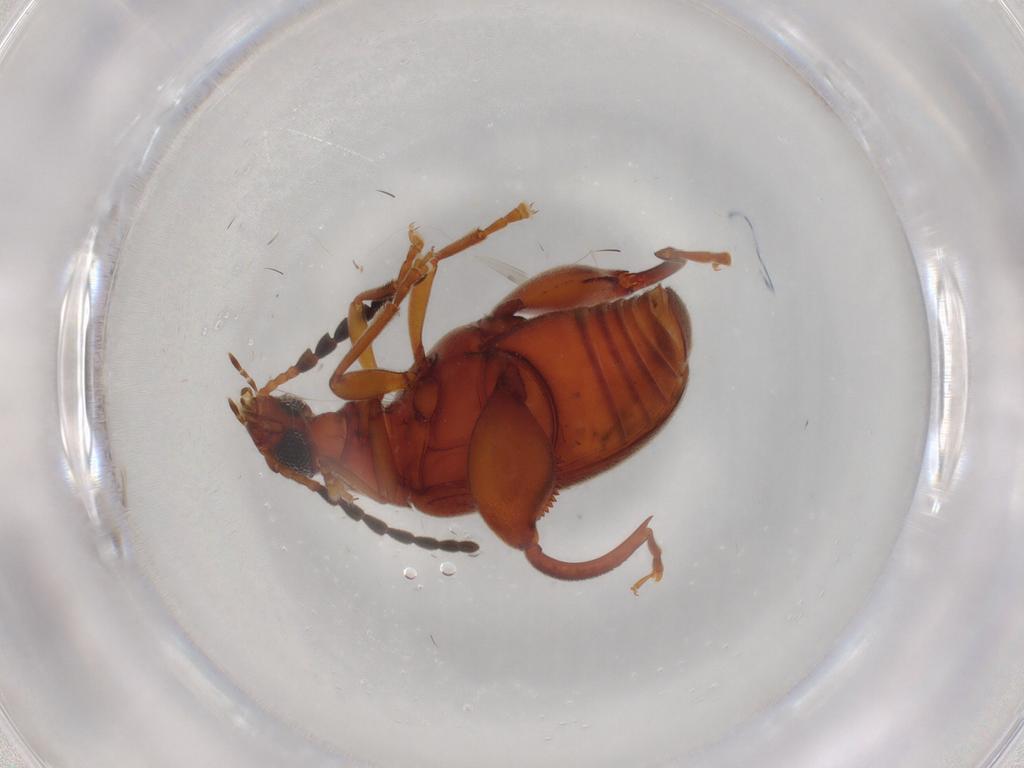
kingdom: Animalia
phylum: Arthropoda
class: Insecta
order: Coleoptera
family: Chrysomelidae
